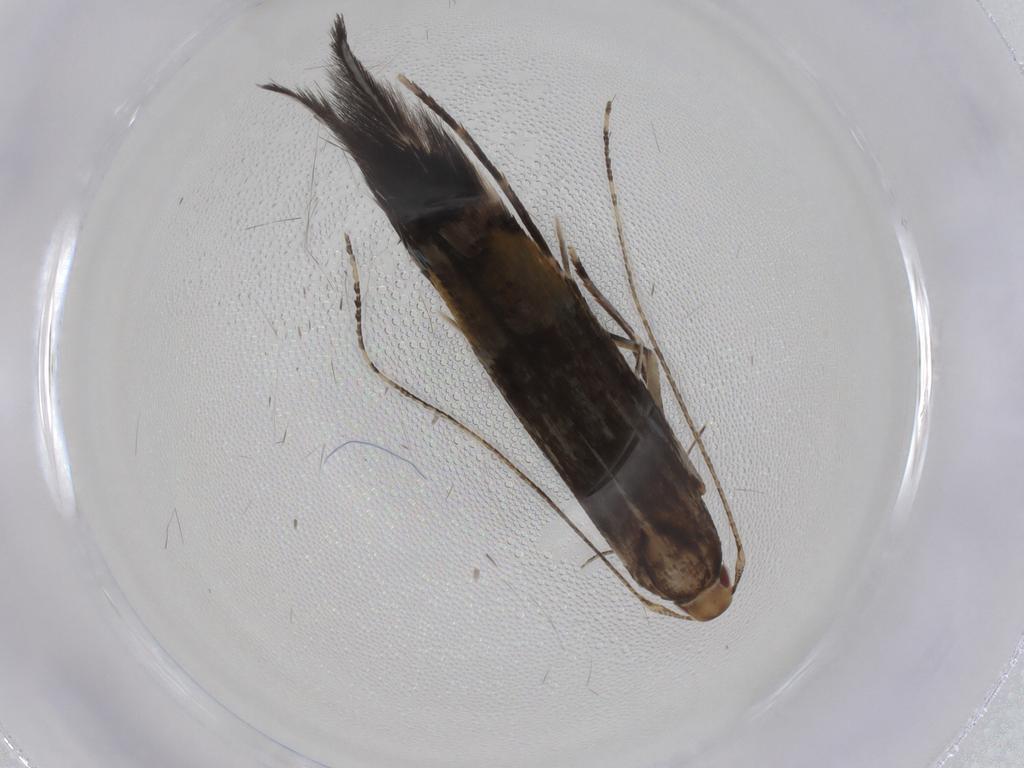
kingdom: Animalia
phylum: Arthropoda
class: Insecta
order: Lepidoptera
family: Cosmopterigidae
